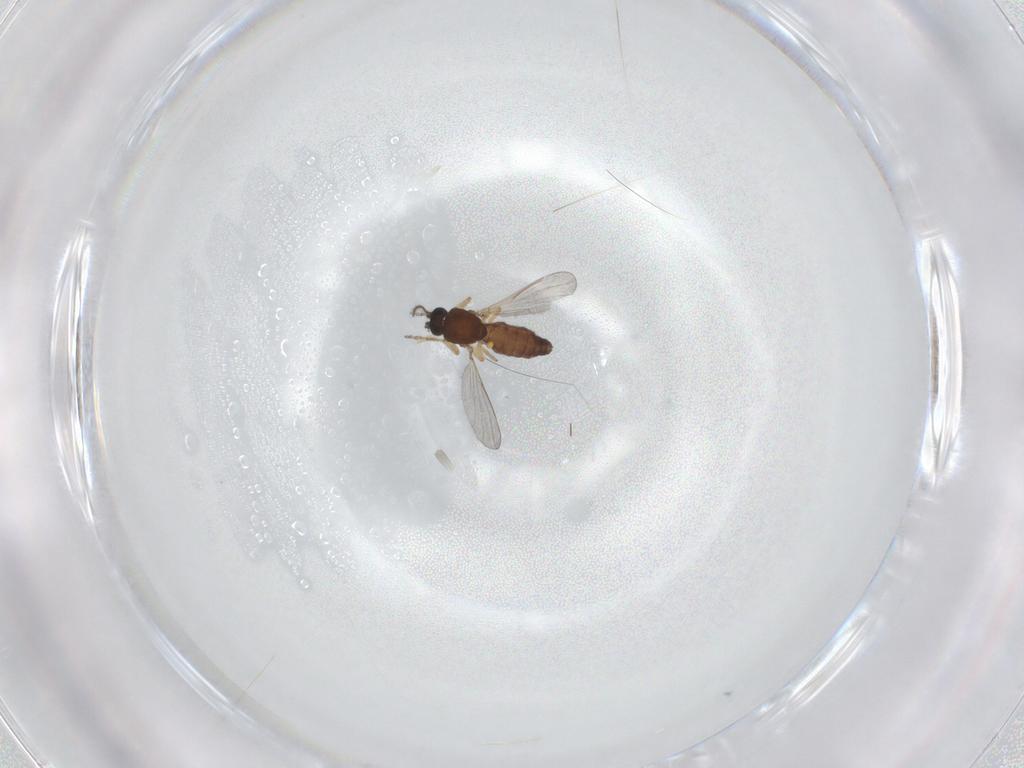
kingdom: Animalia
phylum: Arthropoda
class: Insecta
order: Diptera
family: Ceratopogonidae
